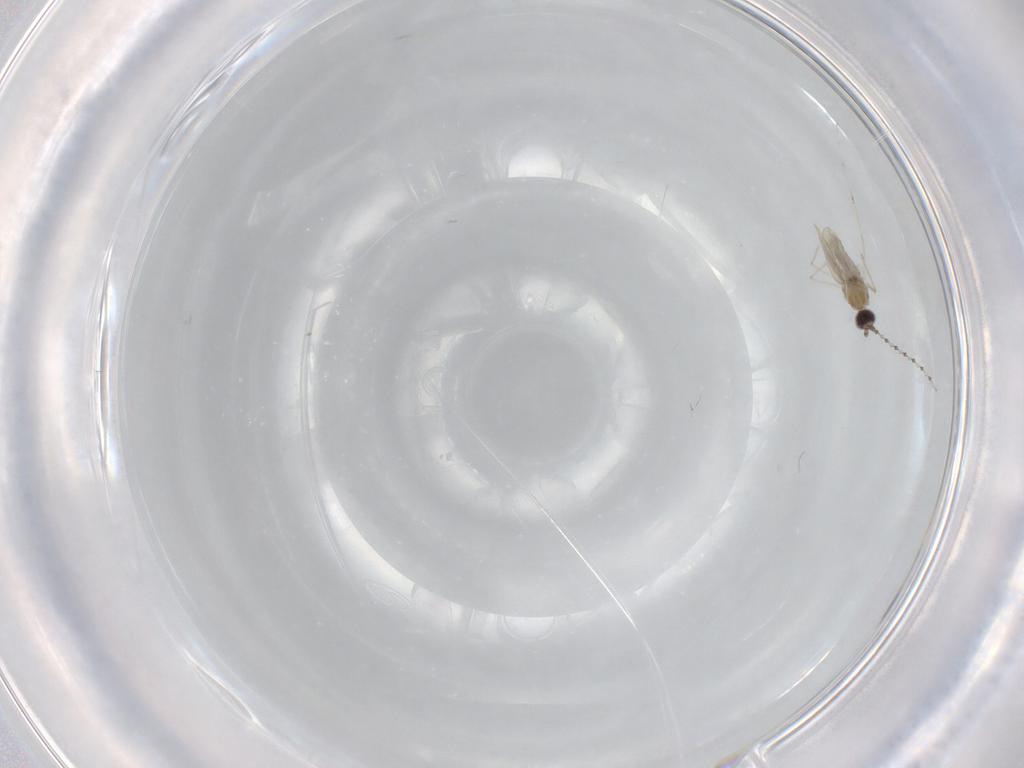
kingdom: Animalia
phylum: Arthropoda
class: Insecta
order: Diptera
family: Cecidomyiidae
